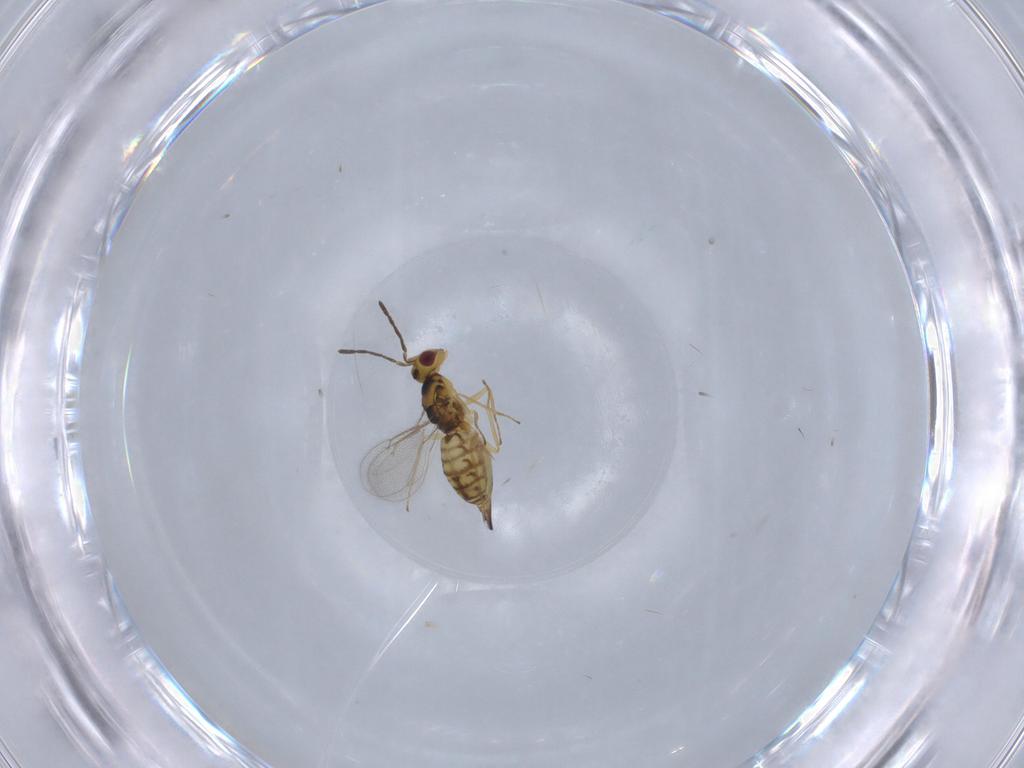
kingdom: Animalia
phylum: Arthropoda
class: Insecta
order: Hymenoptera
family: Eulophidae
